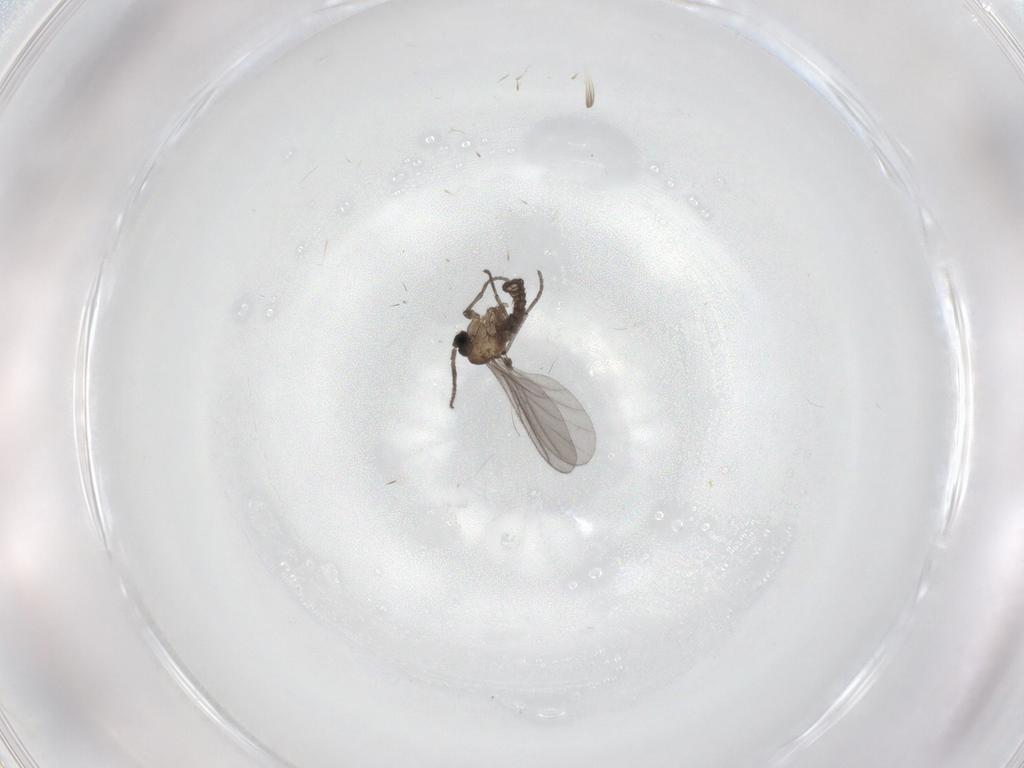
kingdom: Animalia
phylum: Arthropoda
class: Insecta
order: Diptera
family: Sciaridae
